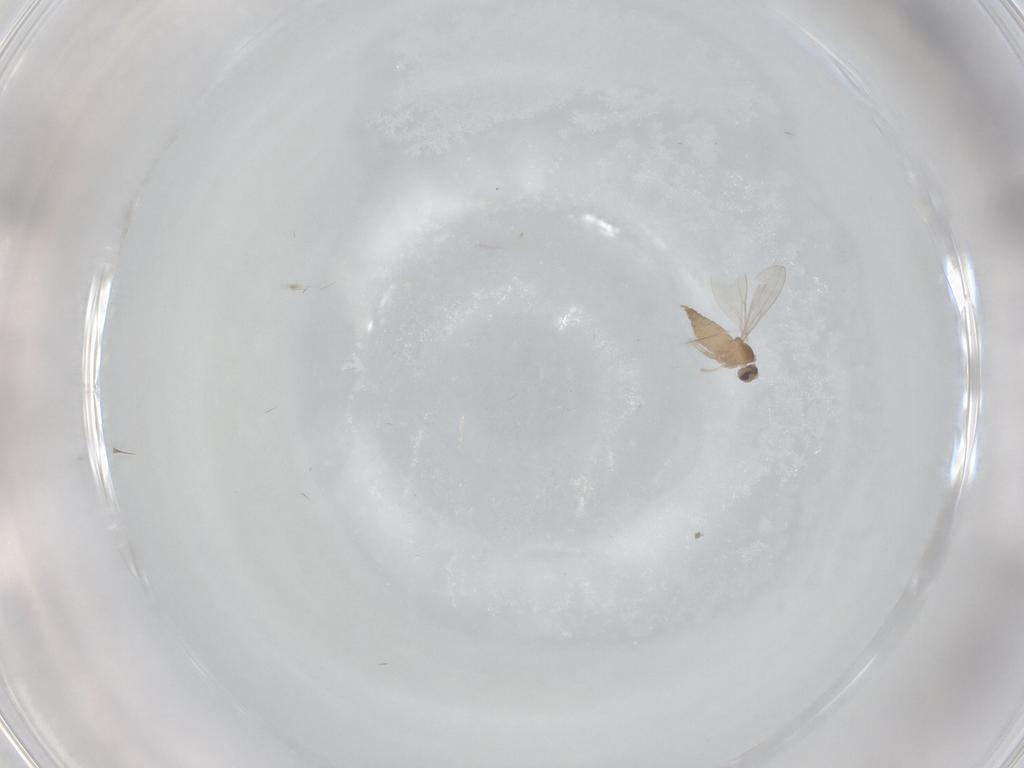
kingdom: Animalia
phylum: Arthropoda
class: Insecta
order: Diptera
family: Cecidomyiidae
